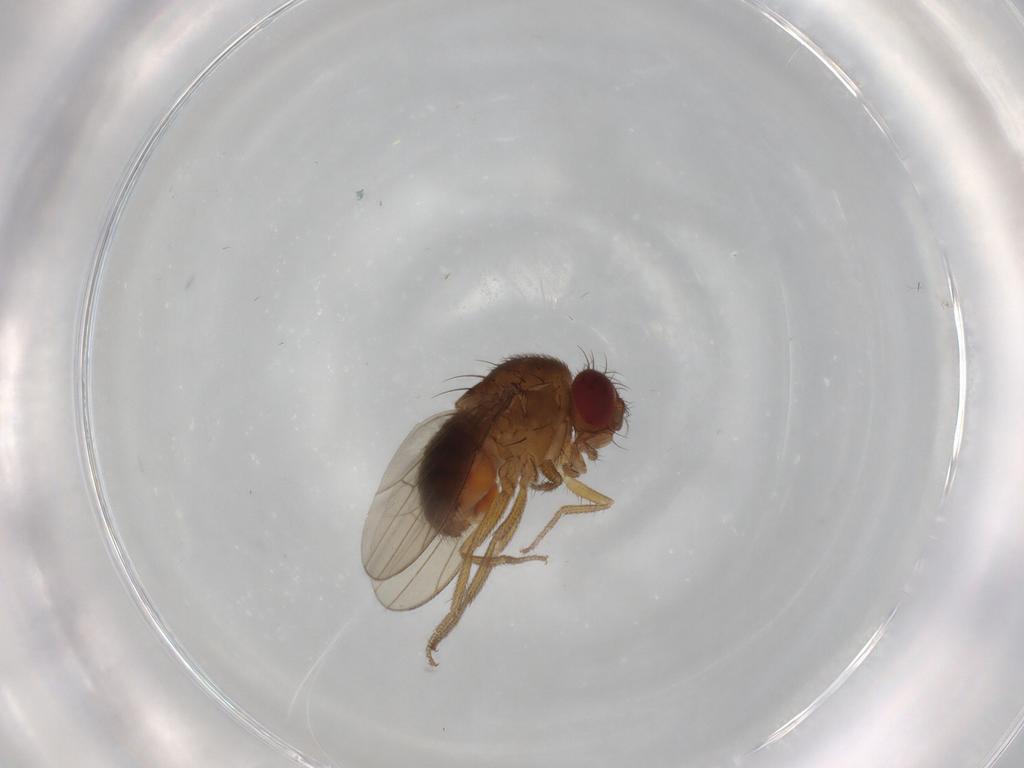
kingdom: Animalia
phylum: Arthropoda
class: Insecta
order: Diptera
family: Drosophilidae
